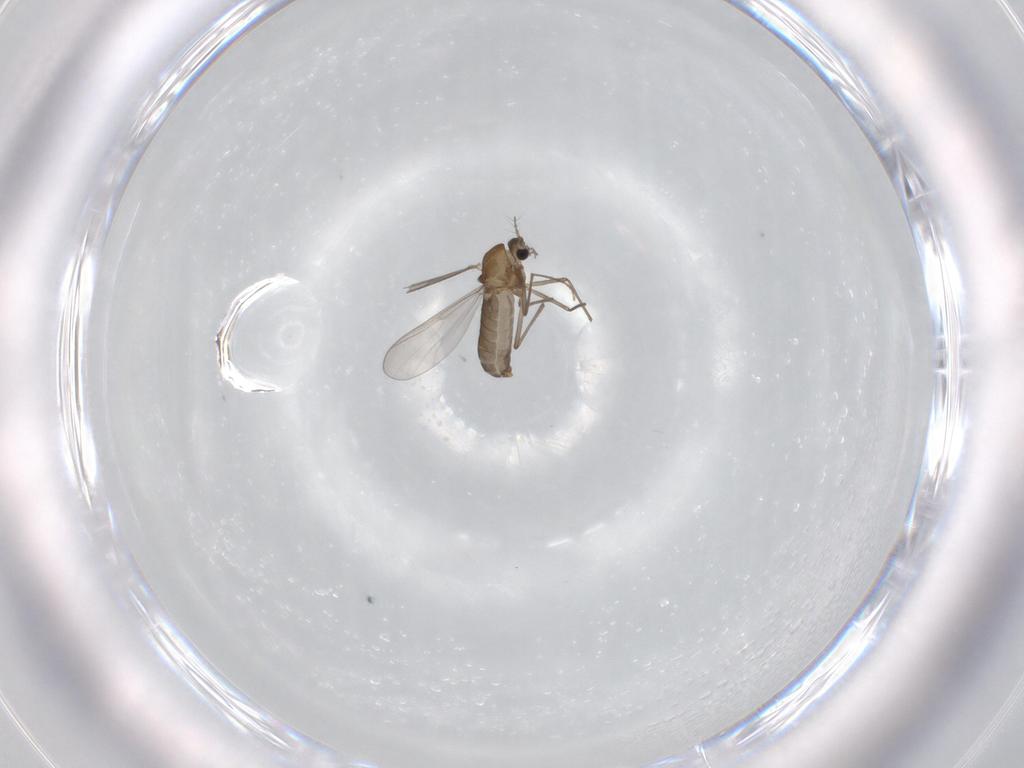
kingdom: Animalia
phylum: Arthropoda
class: Insecta
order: Diptera
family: Chironomidae
